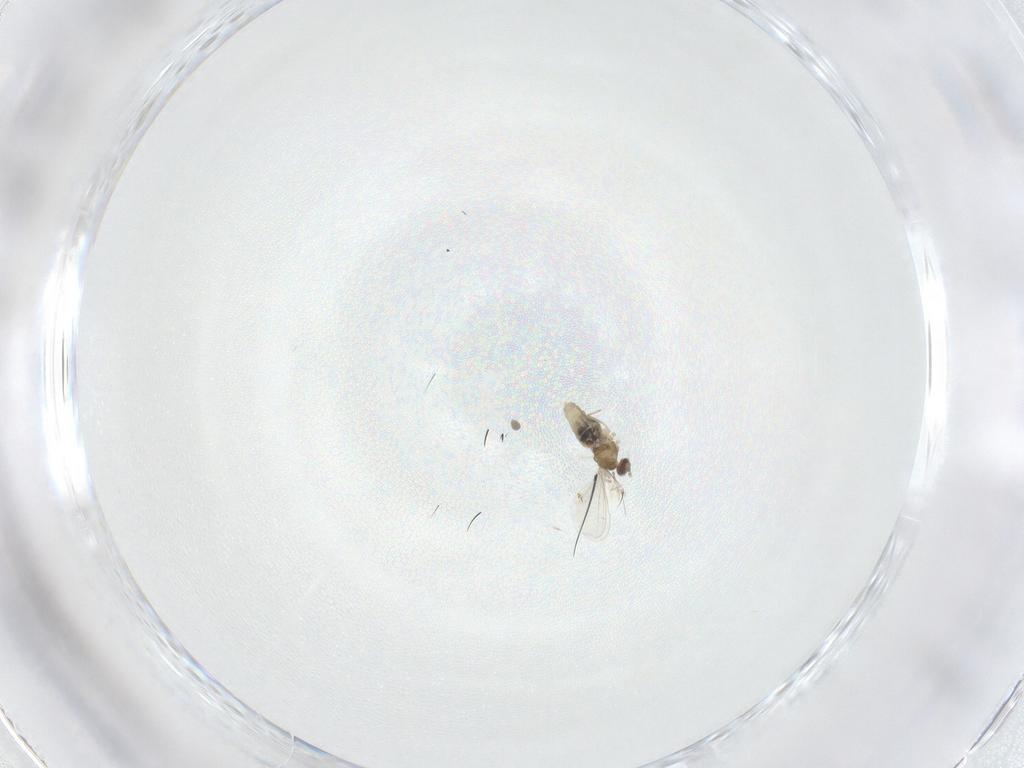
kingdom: Animalia
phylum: Arthropoda
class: Insecta
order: Diptera
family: Cecidomyiidae
